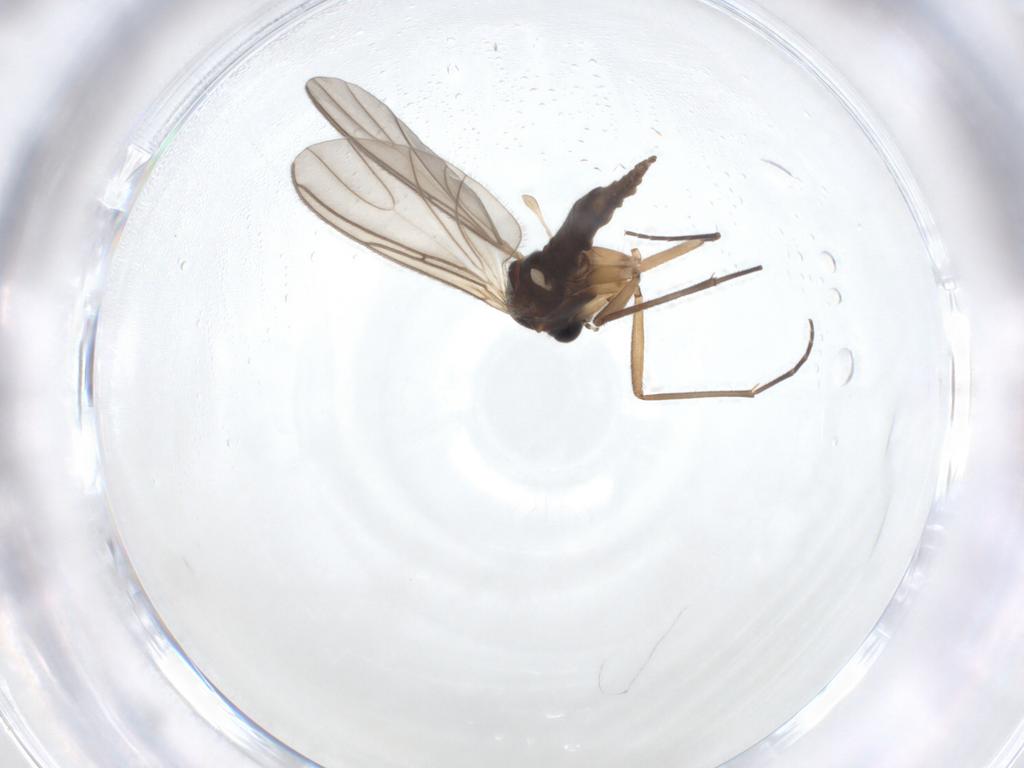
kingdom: Animalia
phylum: Arthropoda
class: Insecta
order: Diptera
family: Sciaridae
